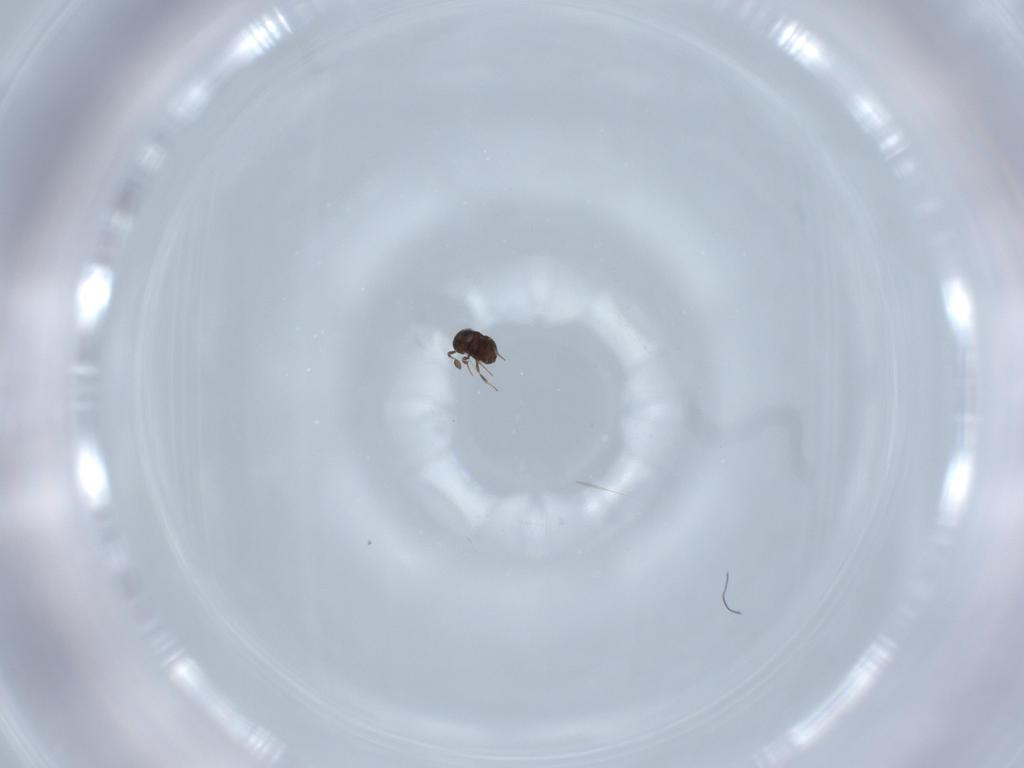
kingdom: Animalia
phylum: Arthropoda
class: Insecta
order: Hymenoptera
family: Scelionidae
